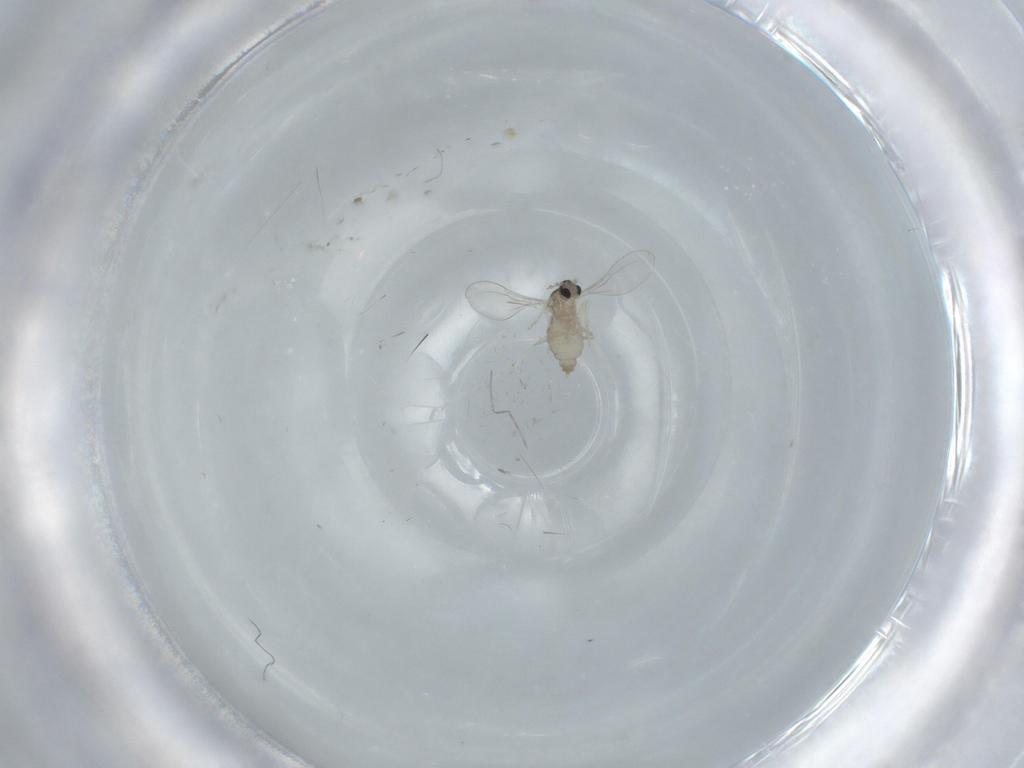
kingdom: Animalia
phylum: Arthropoda
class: Insecta
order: Diptera
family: Cecidomyiidae
